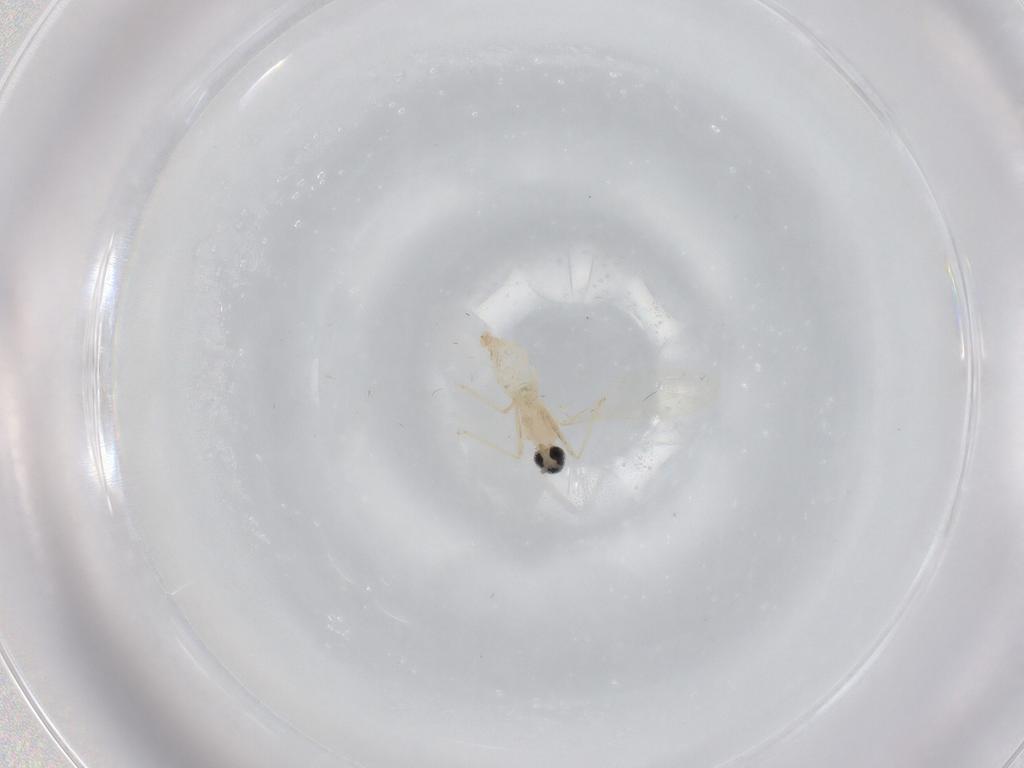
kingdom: Animalia
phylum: Arthropoda
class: Insecta
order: Diptera
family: Cecidomyiidae
